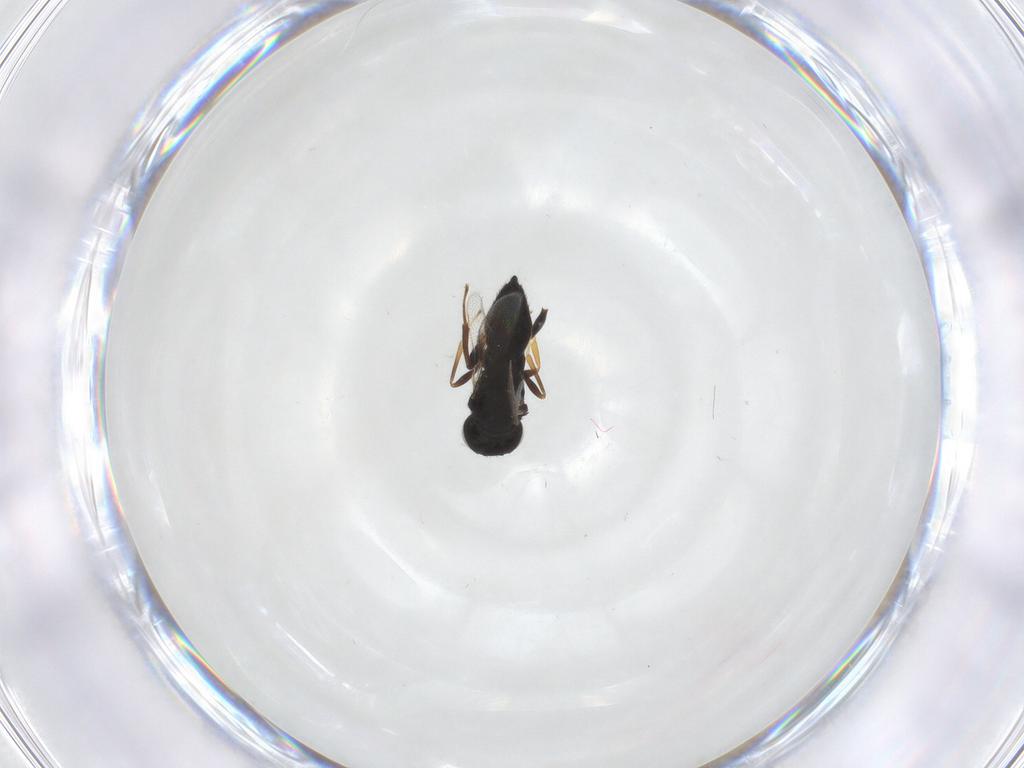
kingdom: Animalia
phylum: Arthropoda
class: Insecta
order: Hymenoptera
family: Pteromalidae
